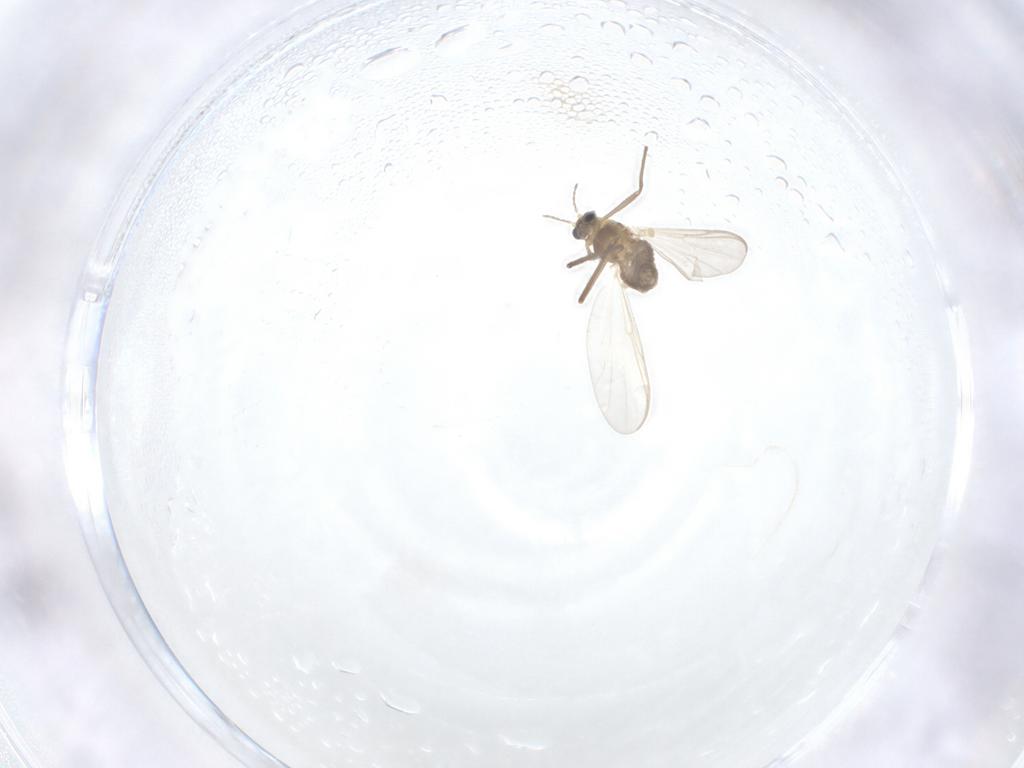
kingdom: Animalia
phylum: Arthropoda
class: Insecta
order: Diptera
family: Chironomidae
